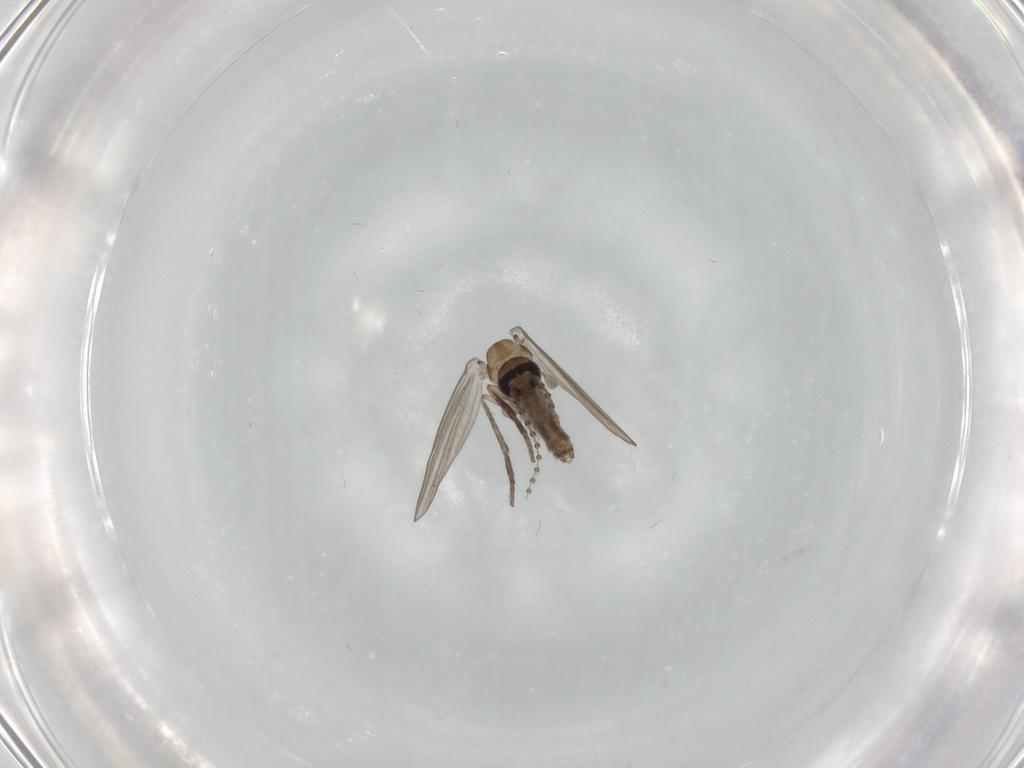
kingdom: Animalia
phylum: Arthropoda
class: Insecta
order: Diptera
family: Psychodidae
